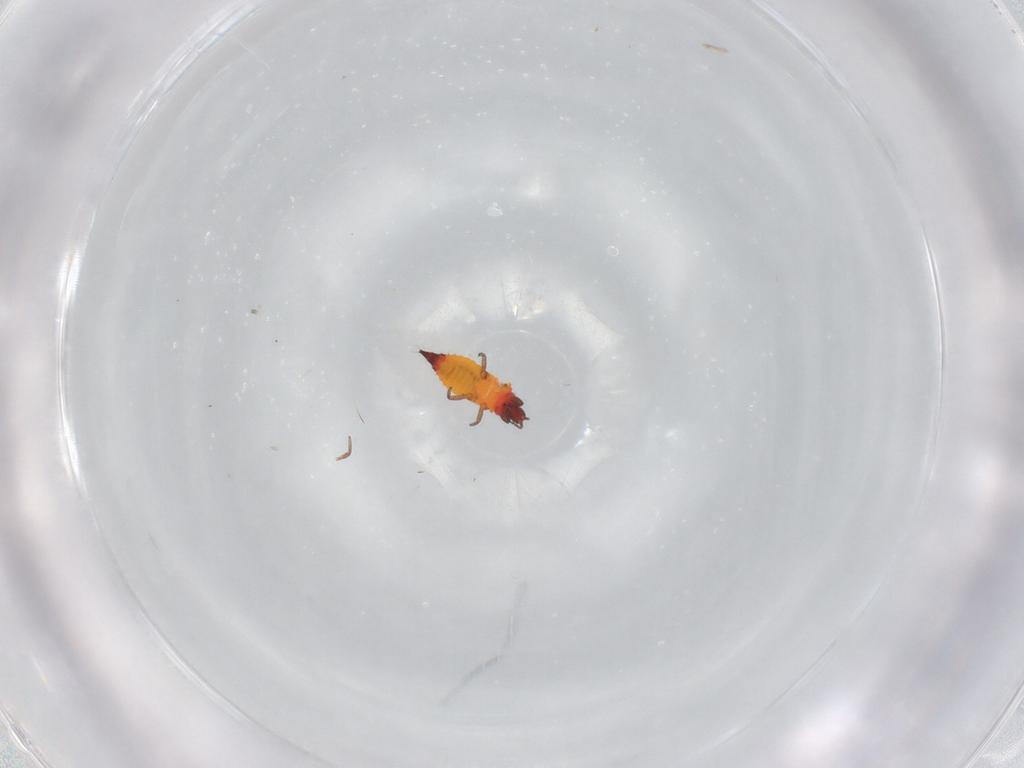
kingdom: Animalia
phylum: Arthropoda
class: Insecta
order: Thysanoptera
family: Phlaeothripidae
